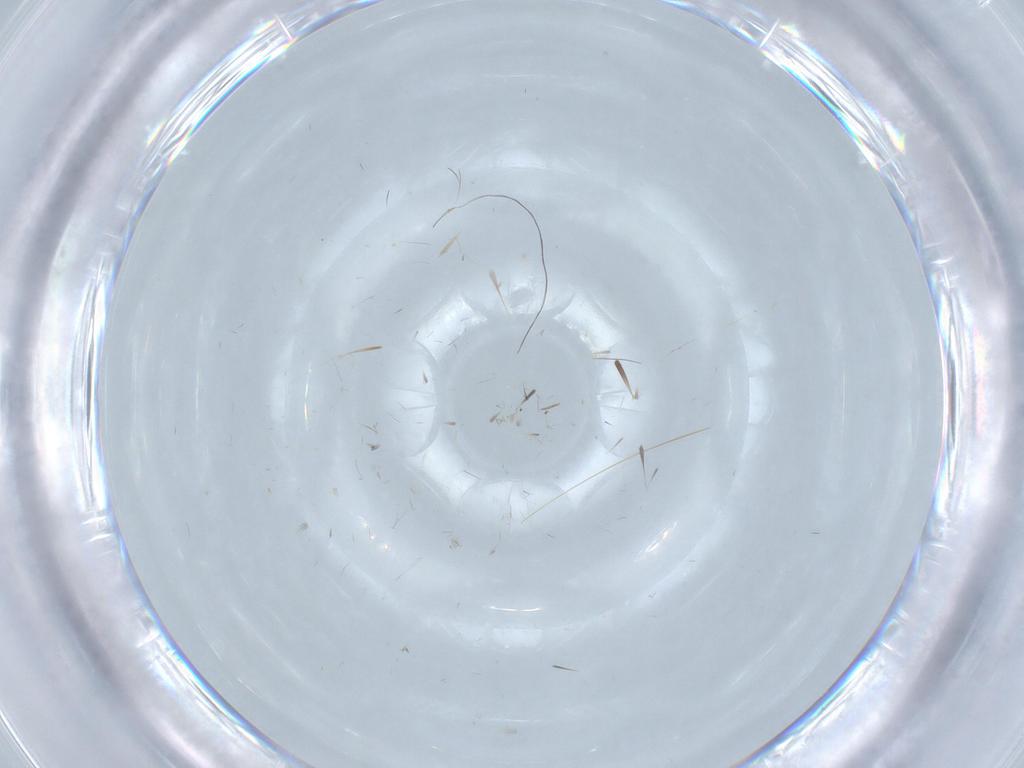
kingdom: Animalia
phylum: Arthropoda
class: Insecta
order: Diptera
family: Cecidomyiidae
